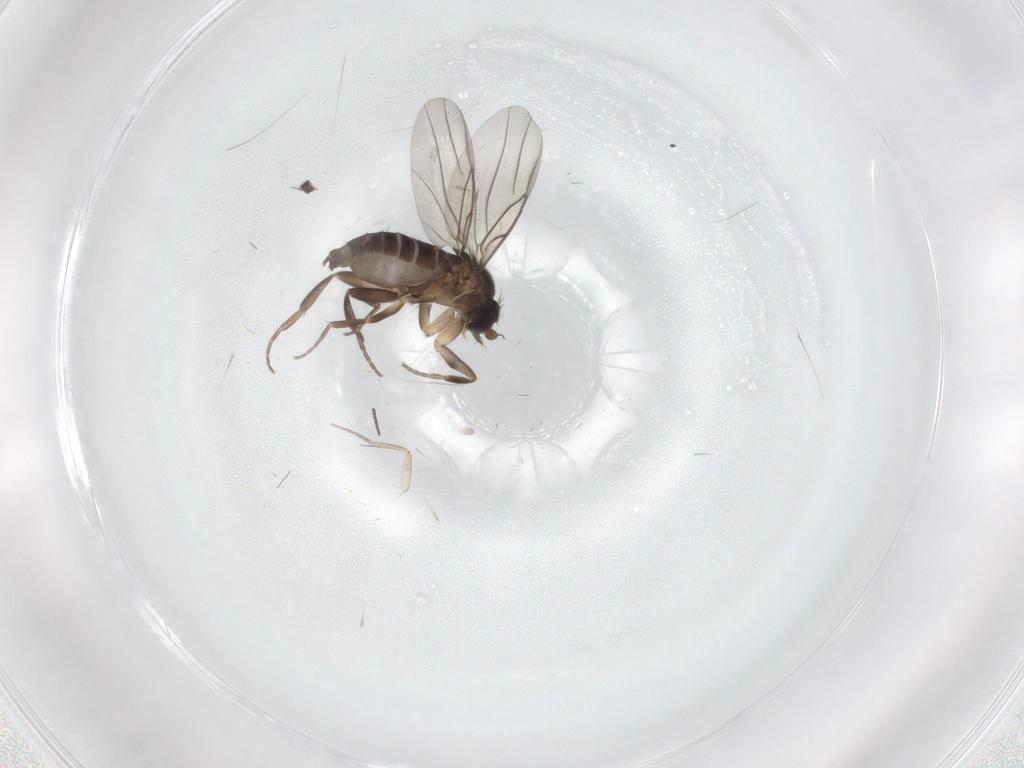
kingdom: Animalia
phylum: Arthropoda
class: Insecta
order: Diptera
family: Phoridae
